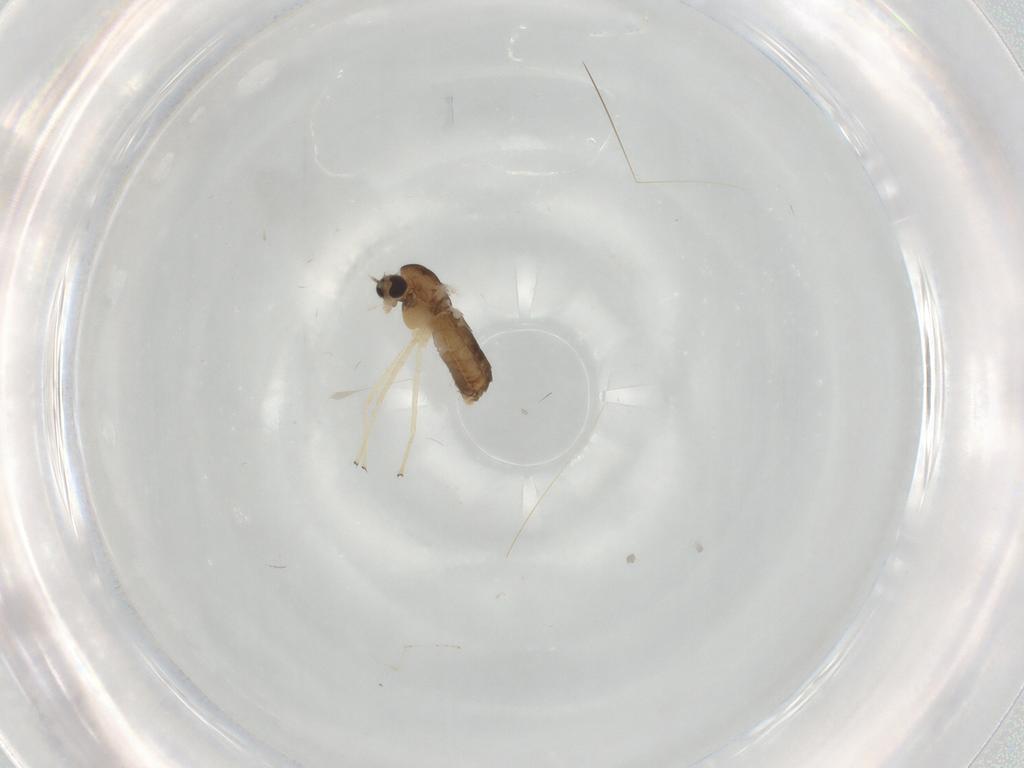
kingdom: Animalia
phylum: Arthropoda
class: Insecta
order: Diptera
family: Chironomidae
